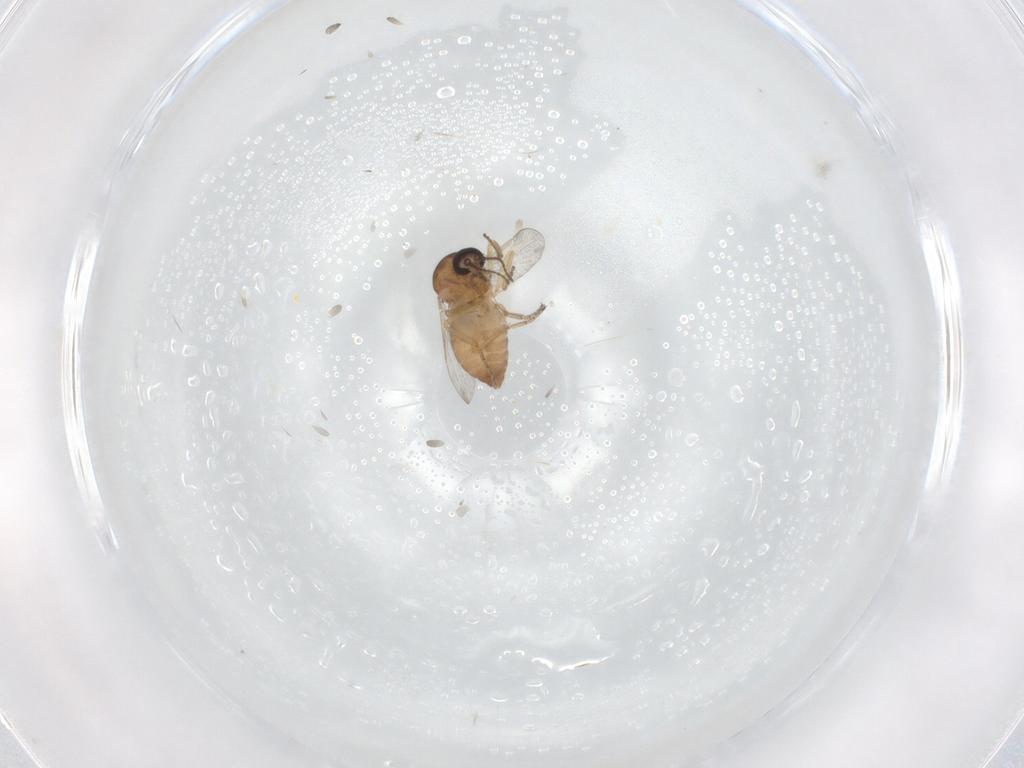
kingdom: Animalia
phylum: Arthropoda
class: Insecta
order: Diptera
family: Ceratopogonidae
